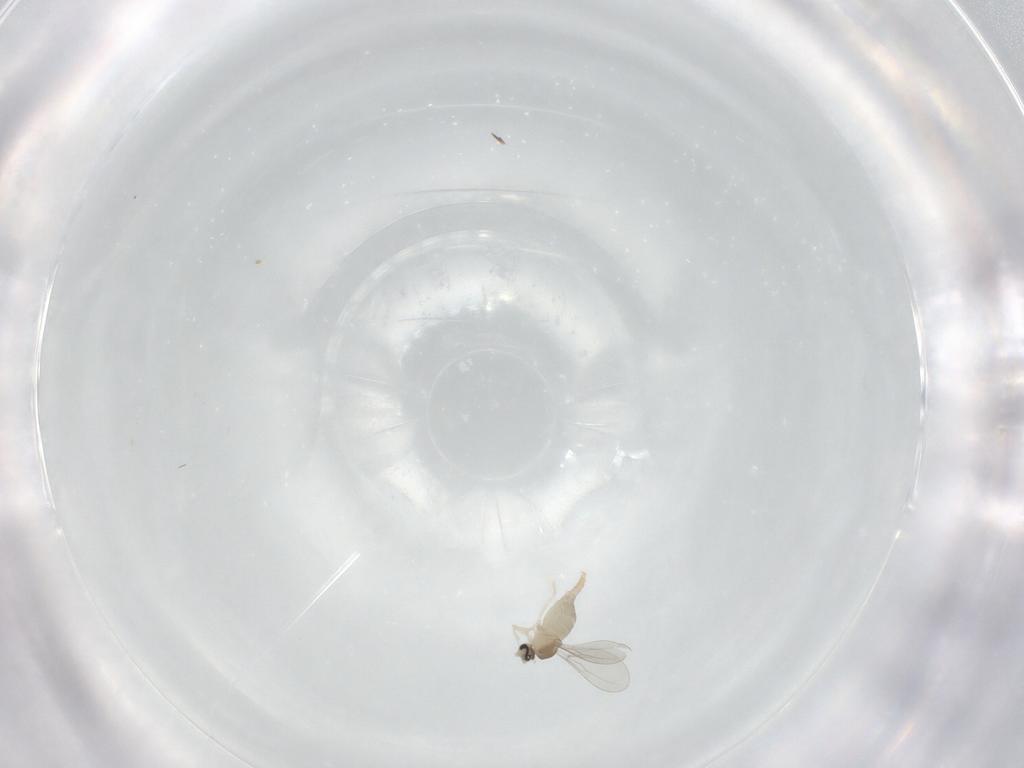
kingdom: Animalia
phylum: Arthropoda
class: Insecta
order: Diptera
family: Cecidomyiidae
